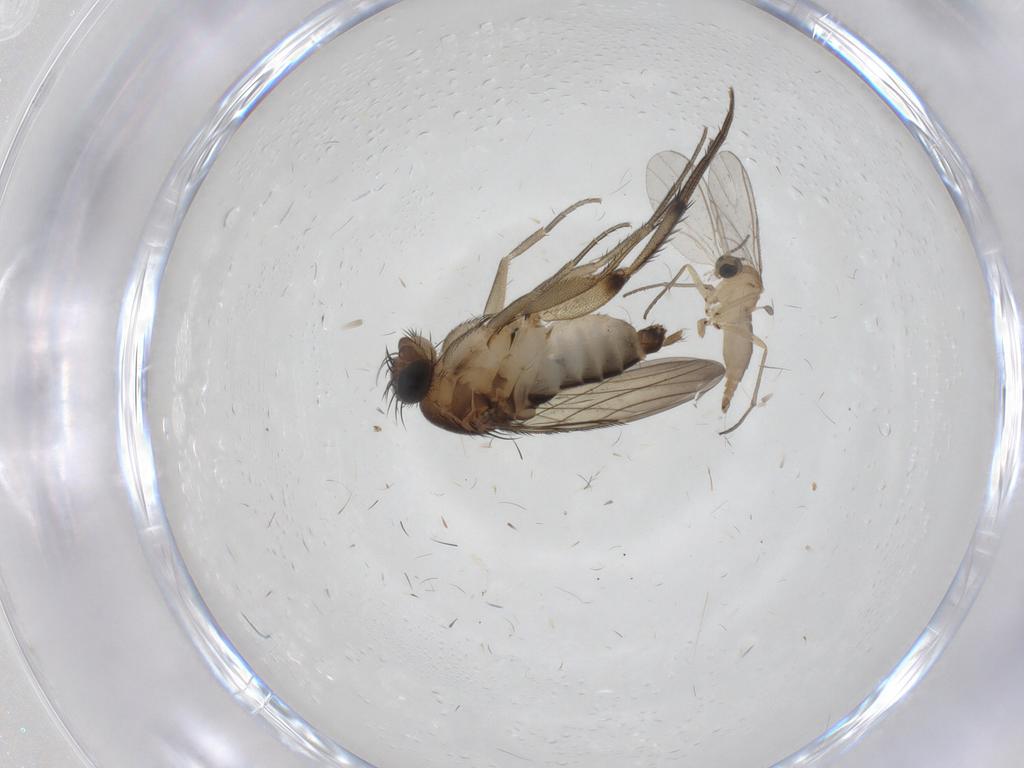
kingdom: Animalia
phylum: Arthropoda
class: Insecta
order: Diptera
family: Phoridae
